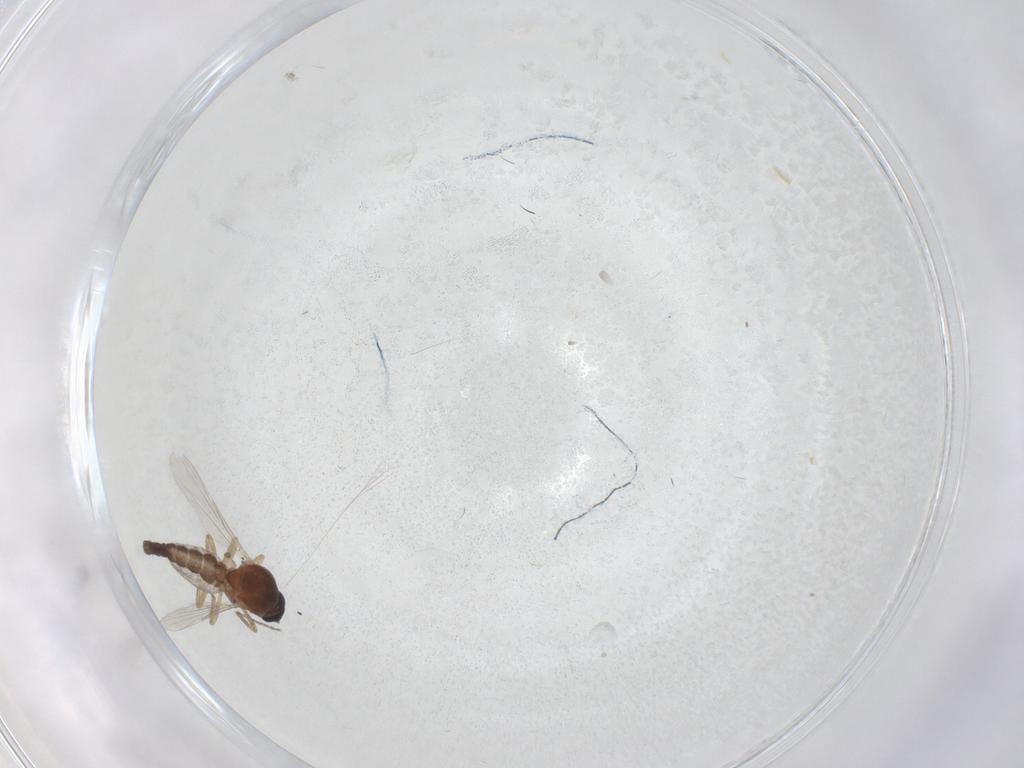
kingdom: Animalia
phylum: Arthropoda
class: Insecta
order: Diptera
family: Ceratopogonidae
